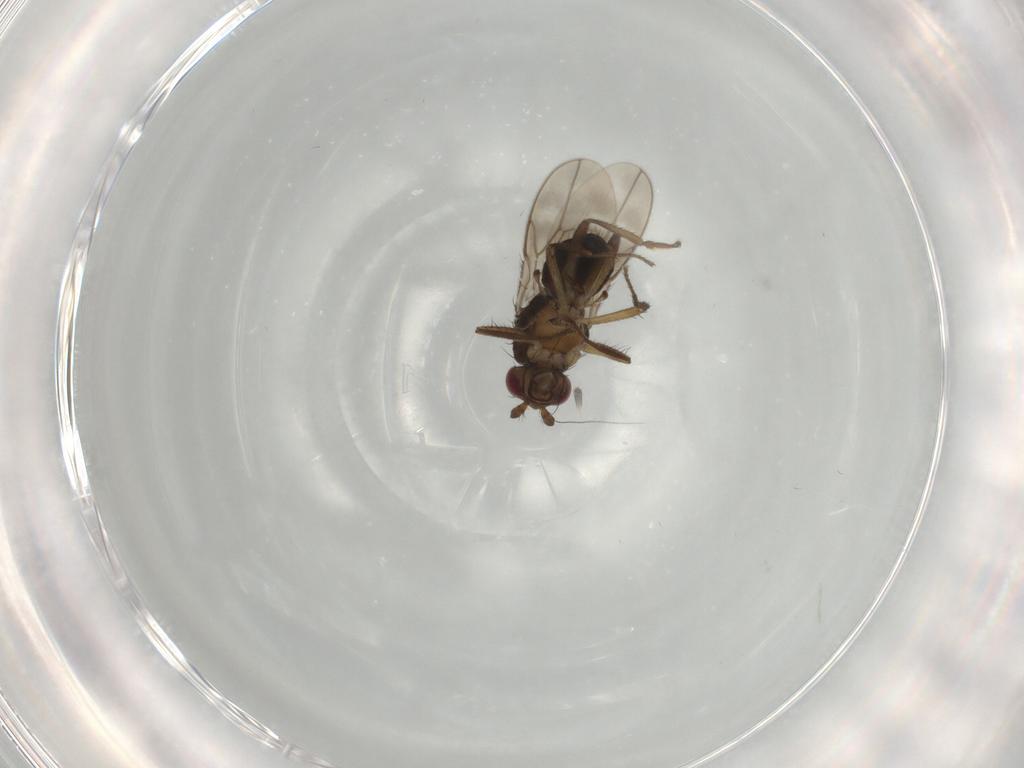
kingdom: Animalia
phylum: Arthropoda
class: Insecta
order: Diptera
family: Sphaeroceridae
